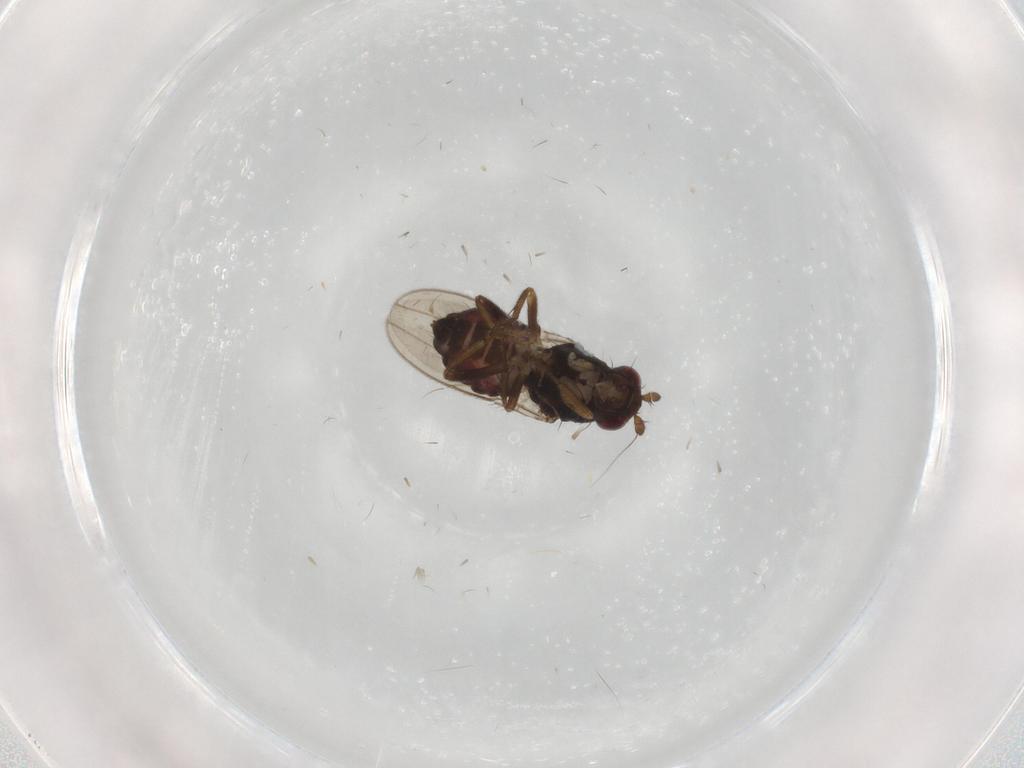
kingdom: Animalia
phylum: Arthropoda
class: Insecta
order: Diptera
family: Sphaeroceridae
